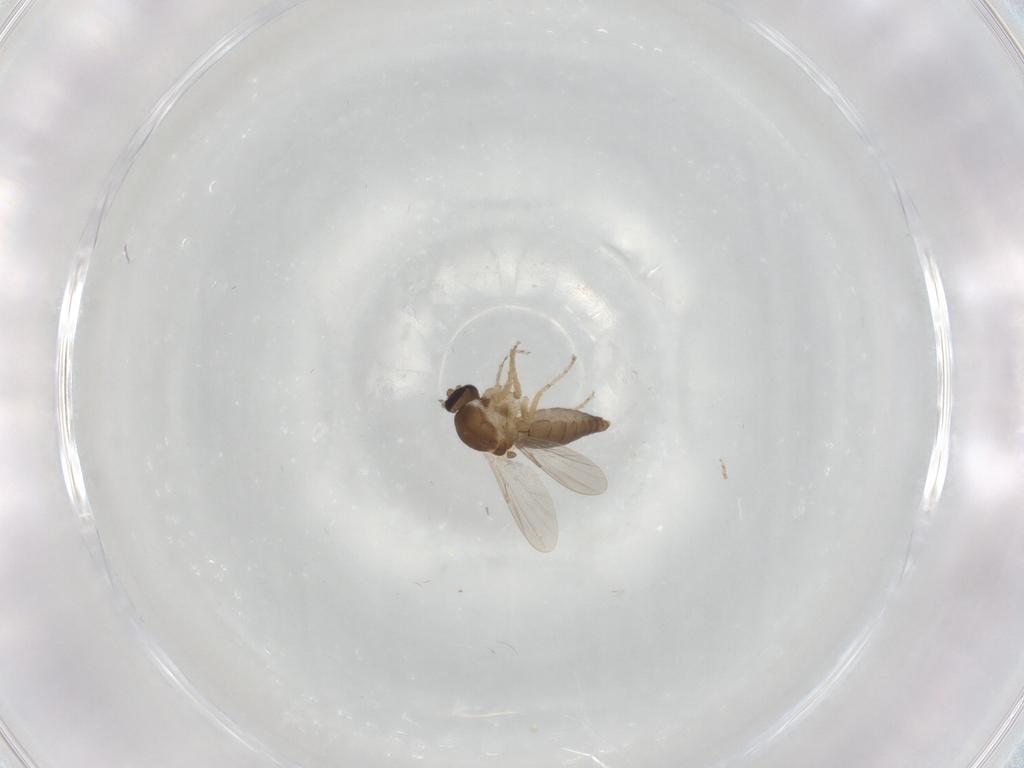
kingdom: Animalia
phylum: Arthropoda
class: Insecta
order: Diptera
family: Ceratopogonidae
